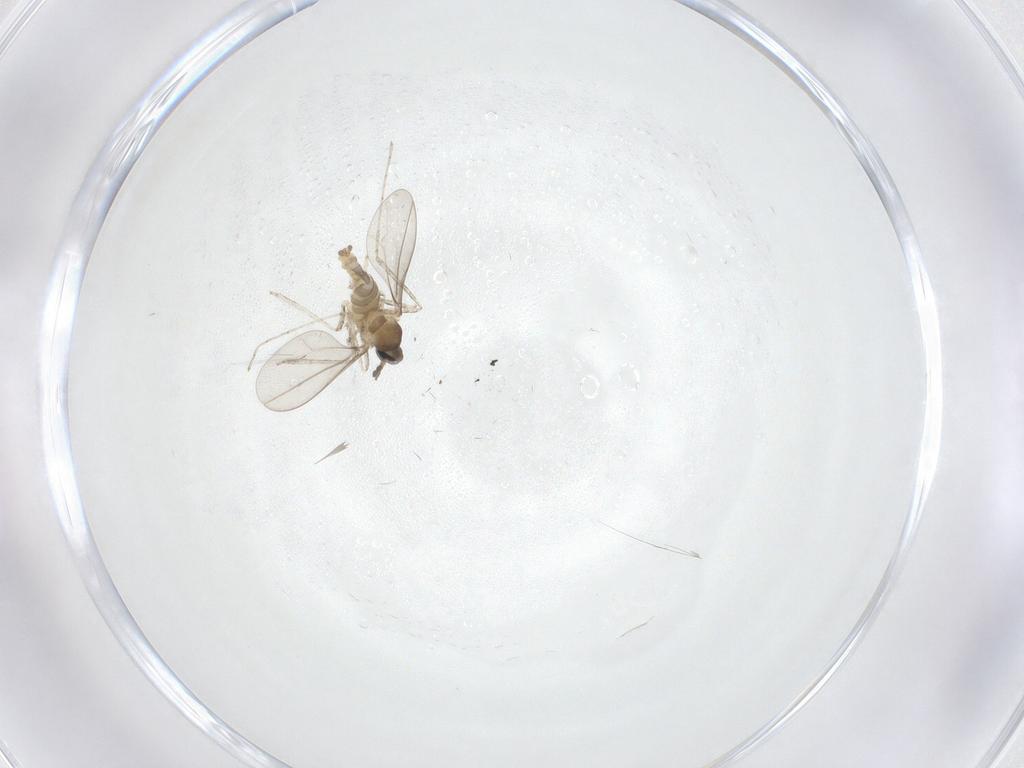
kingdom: Animalia
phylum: Arthropoda
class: Insecta
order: Diptera
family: Cecidomyiidae
